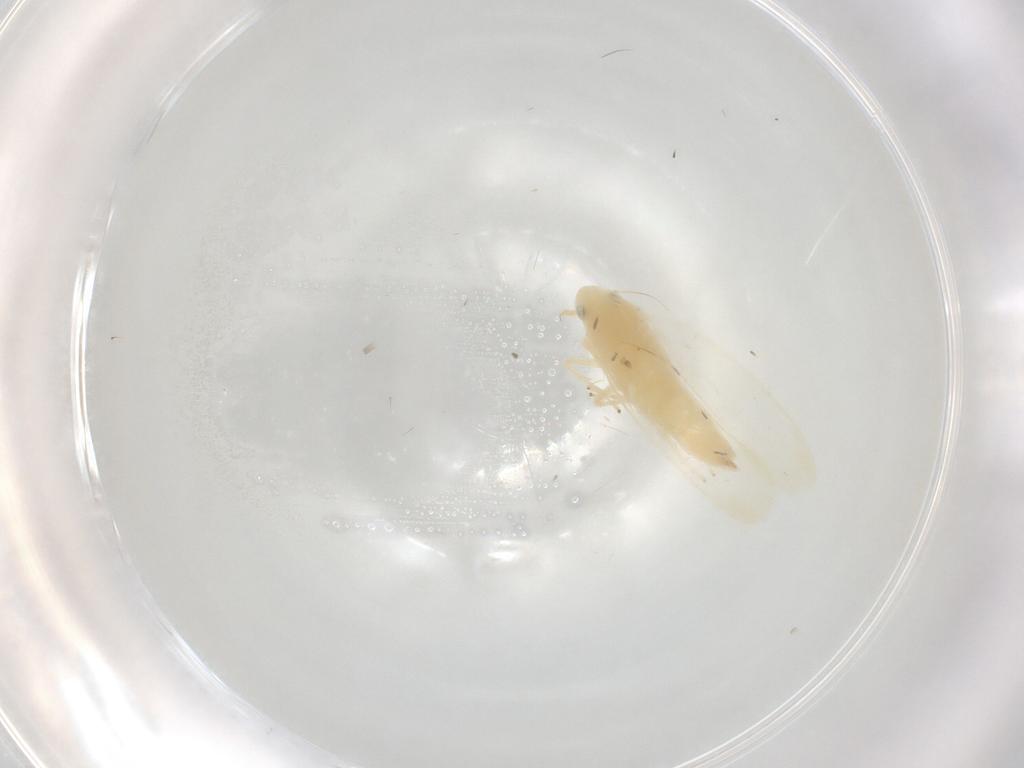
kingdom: Animalia
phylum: Arthropoda
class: Insecta
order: Hemiptera
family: Cicadellidae
